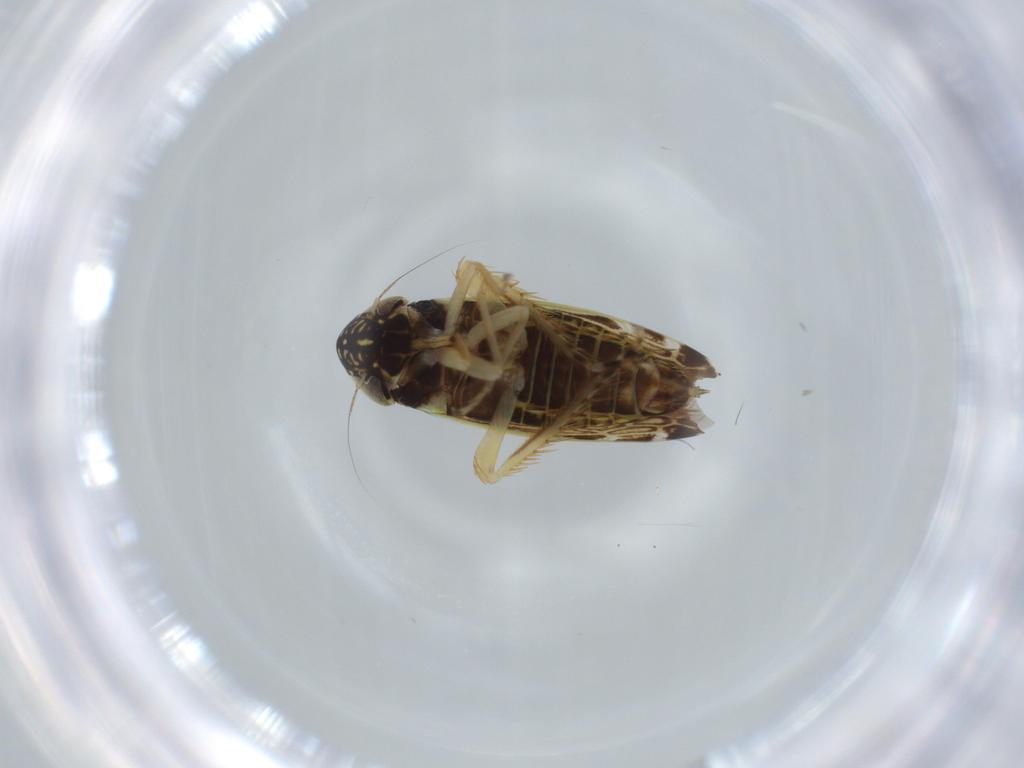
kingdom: Animalia
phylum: Arthropoda
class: Insecta
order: Hemiptera
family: Cicadellidae
